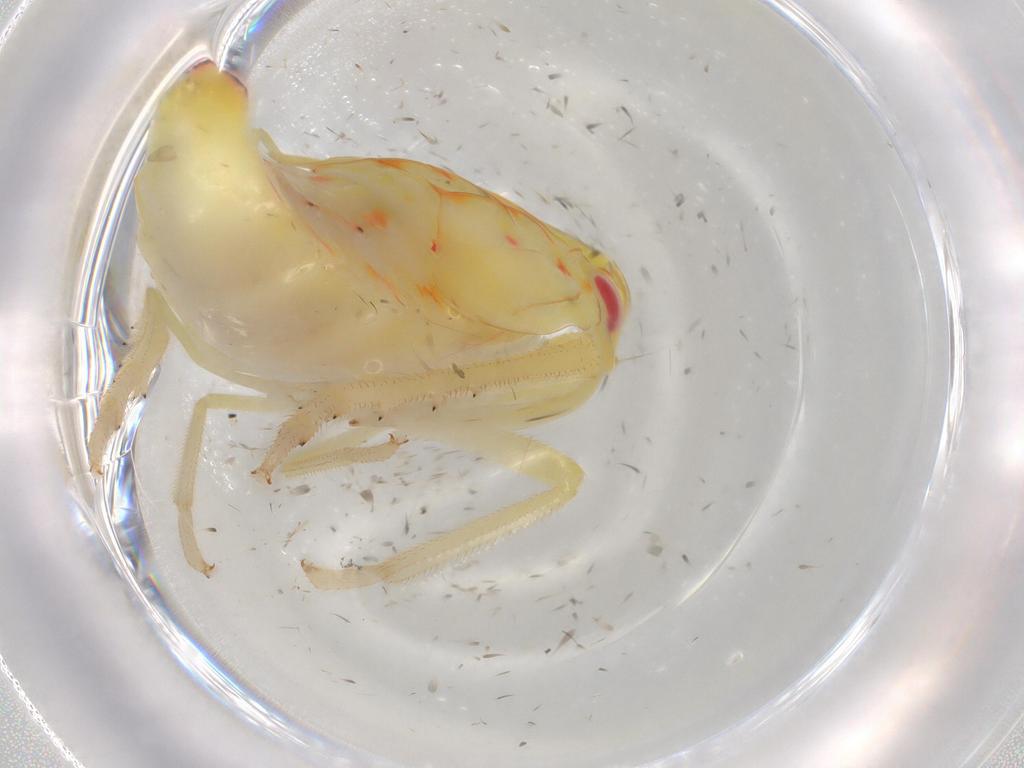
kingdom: Animalia
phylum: Arthropoda
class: Insecta
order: Hemiptera
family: Tropiduchidae
